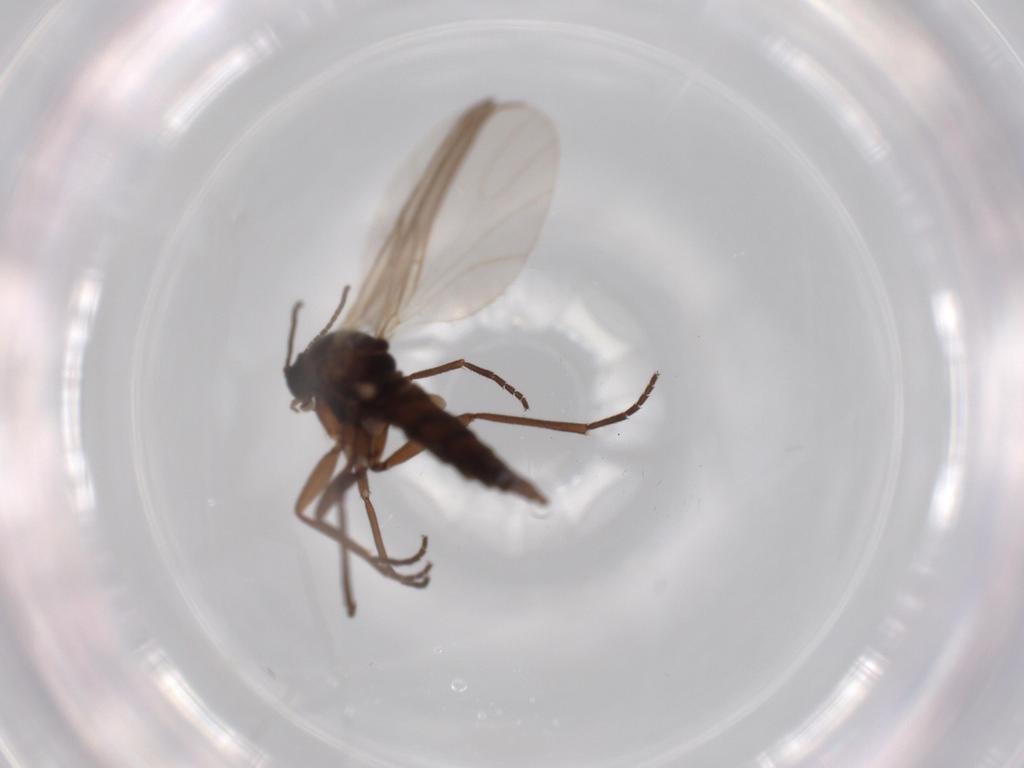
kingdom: Animalia
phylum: Arthropoda
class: Insecta
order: Diptera
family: Sciaridae
